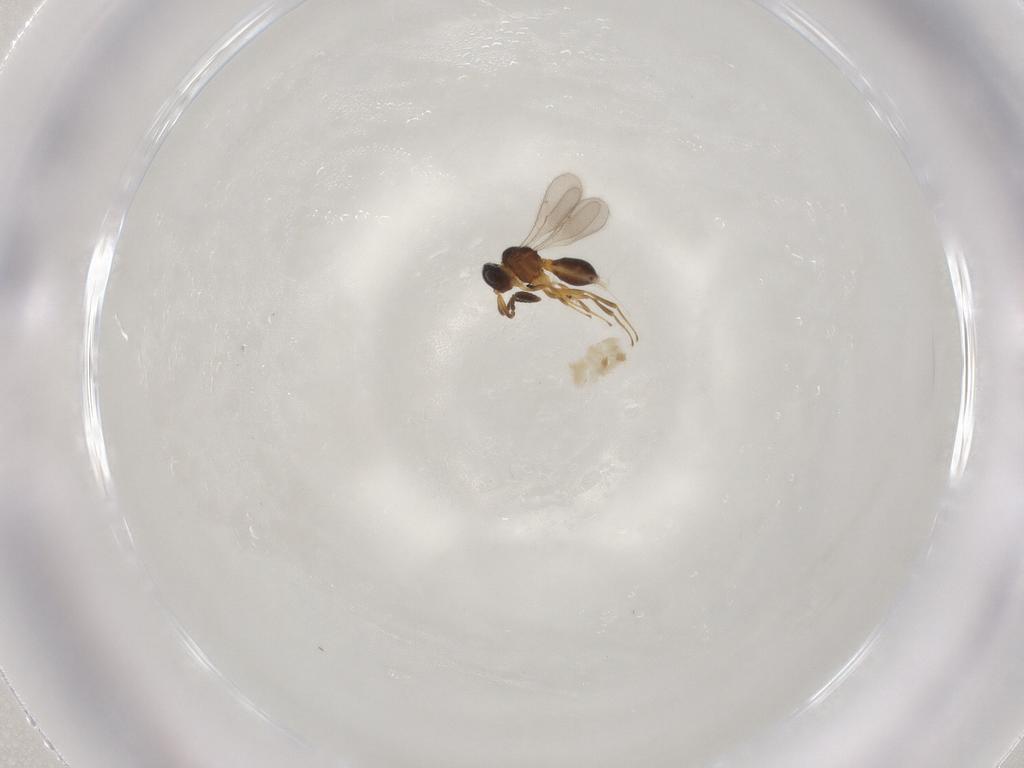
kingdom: Animalia
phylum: Arthropoda
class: Insecta
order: Hymenoptera
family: Scelionidae
